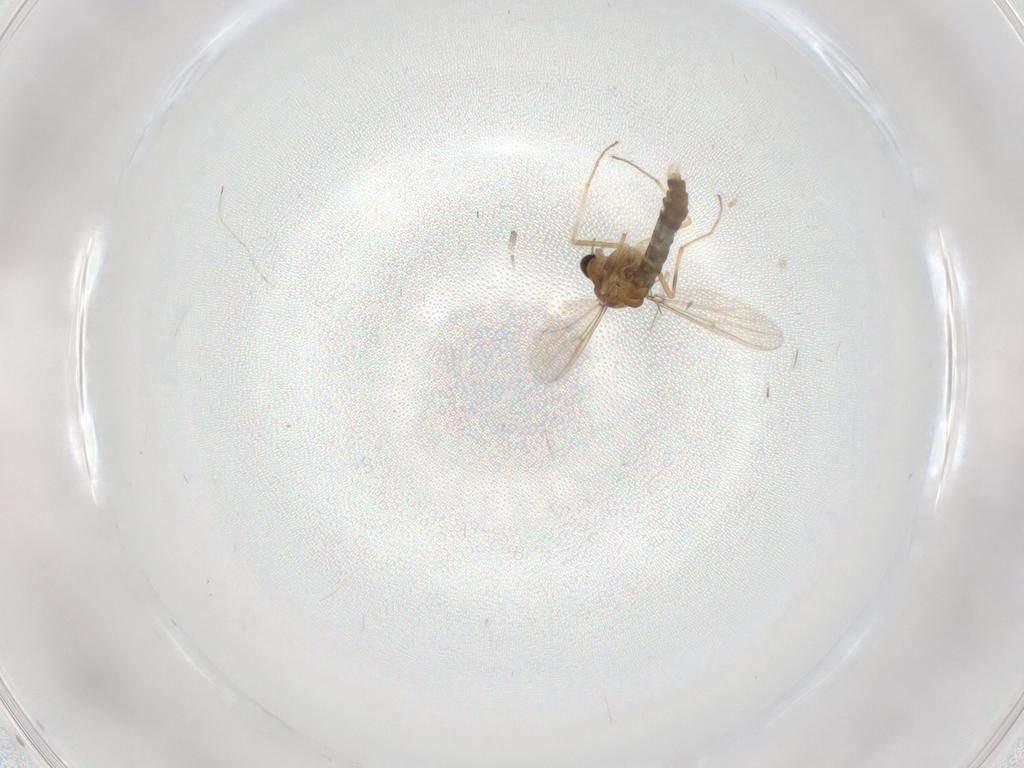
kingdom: Animalia
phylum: Arthropoda
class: Insecta
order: Diptera
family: Chironomidae
